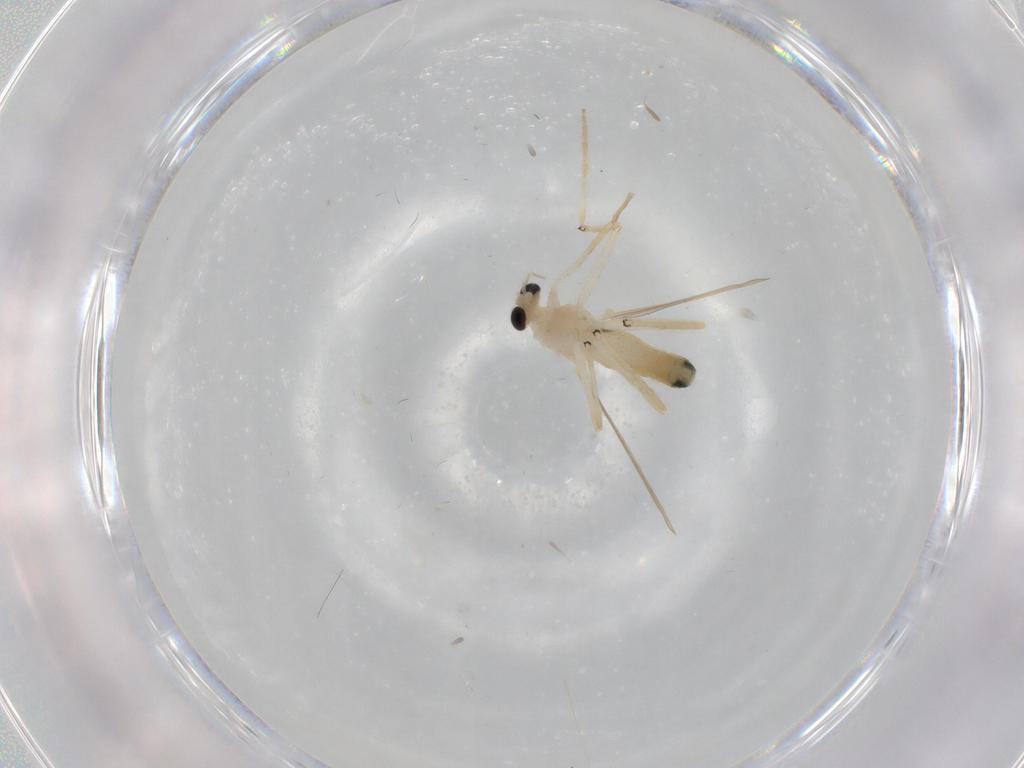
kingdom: Animalia
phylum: Arthropoda
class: Insecta
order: Diptera
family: Chironomidae
